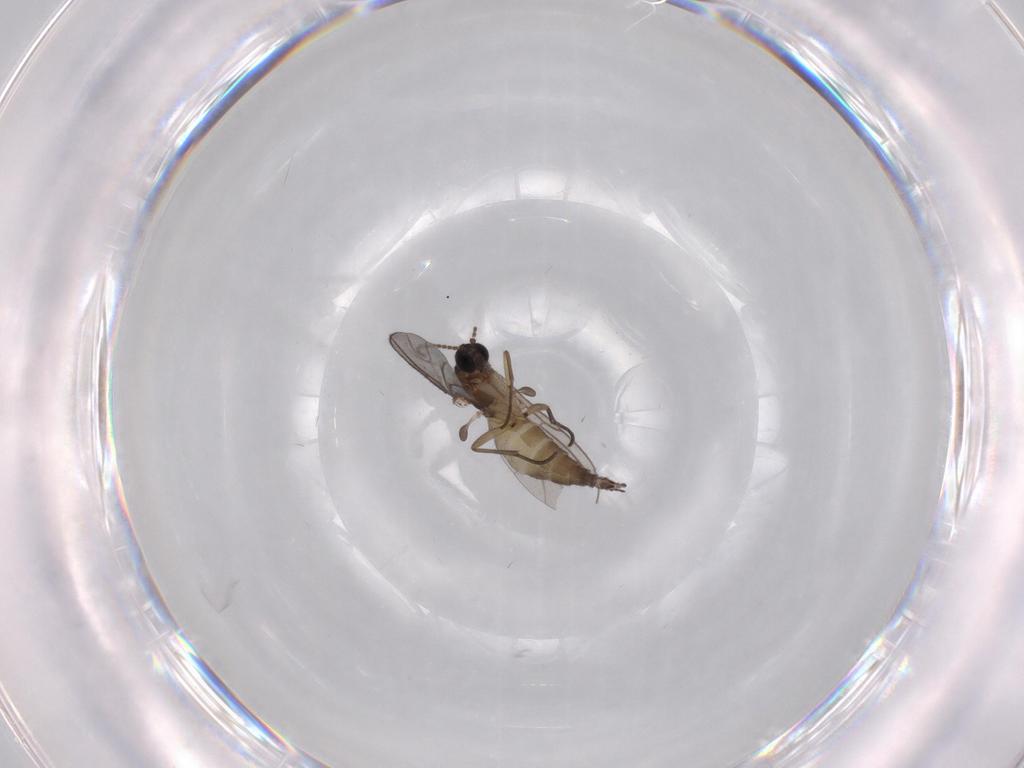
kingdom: Animalia
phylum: Arthropoda
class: Insecta
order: Diptera
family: Sciaridae
